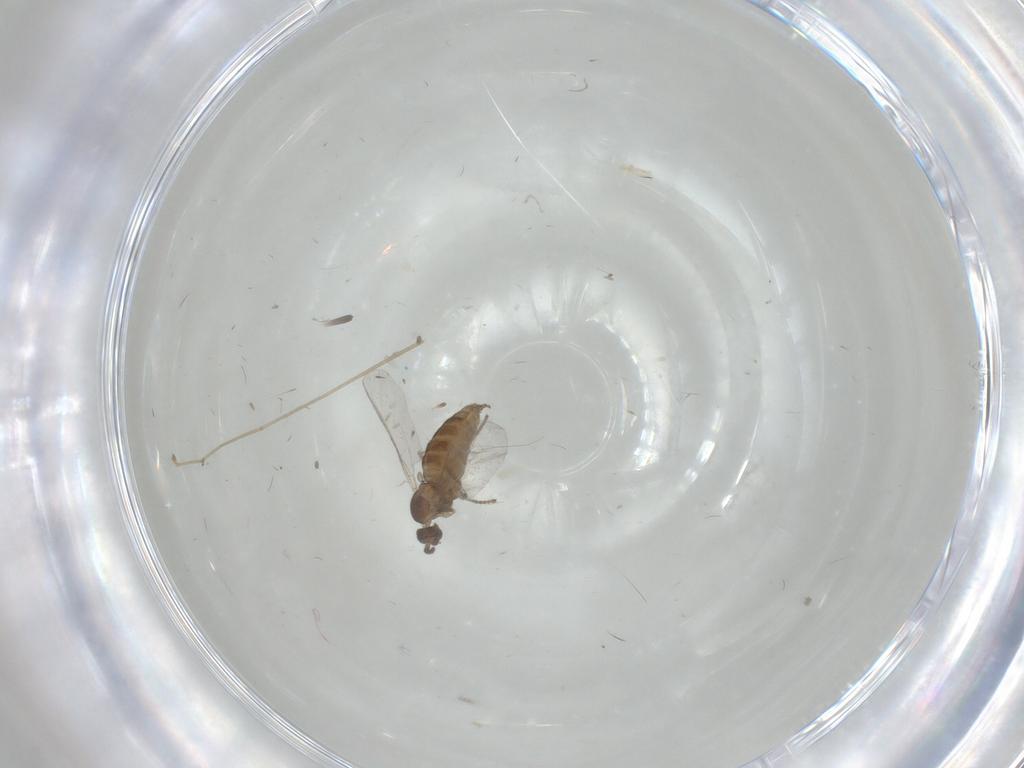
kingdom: Animalia
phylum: Arthropoda
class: Insecta
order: Diptera
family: Cecidomyiidae
